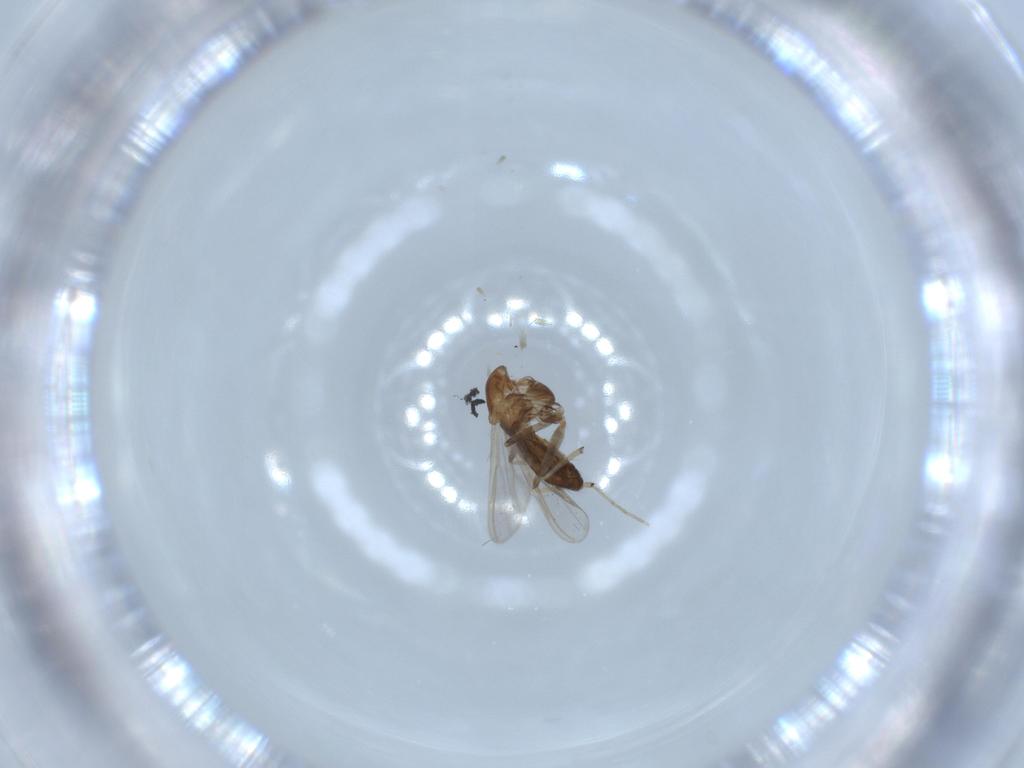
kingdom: Animalia
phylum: Arthropoda
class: Insecta
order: Diptera
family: Chironomidae
